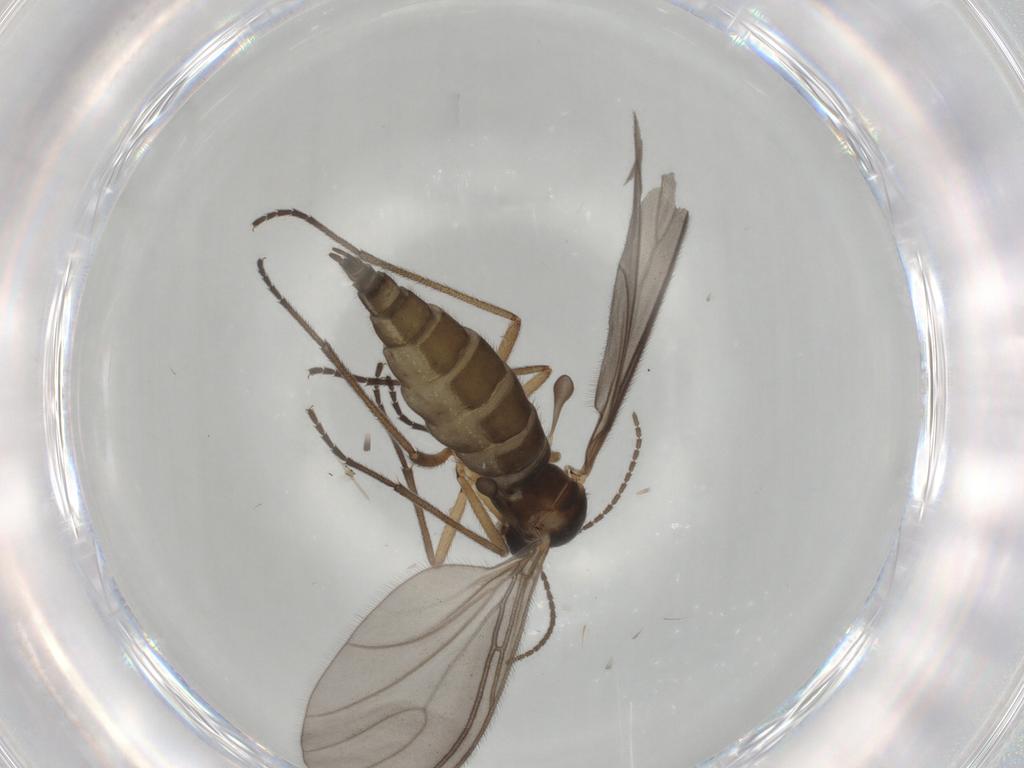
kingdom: Animalia
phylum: Arthropoda
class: Insecta
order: Diptera
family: Sciaridae
